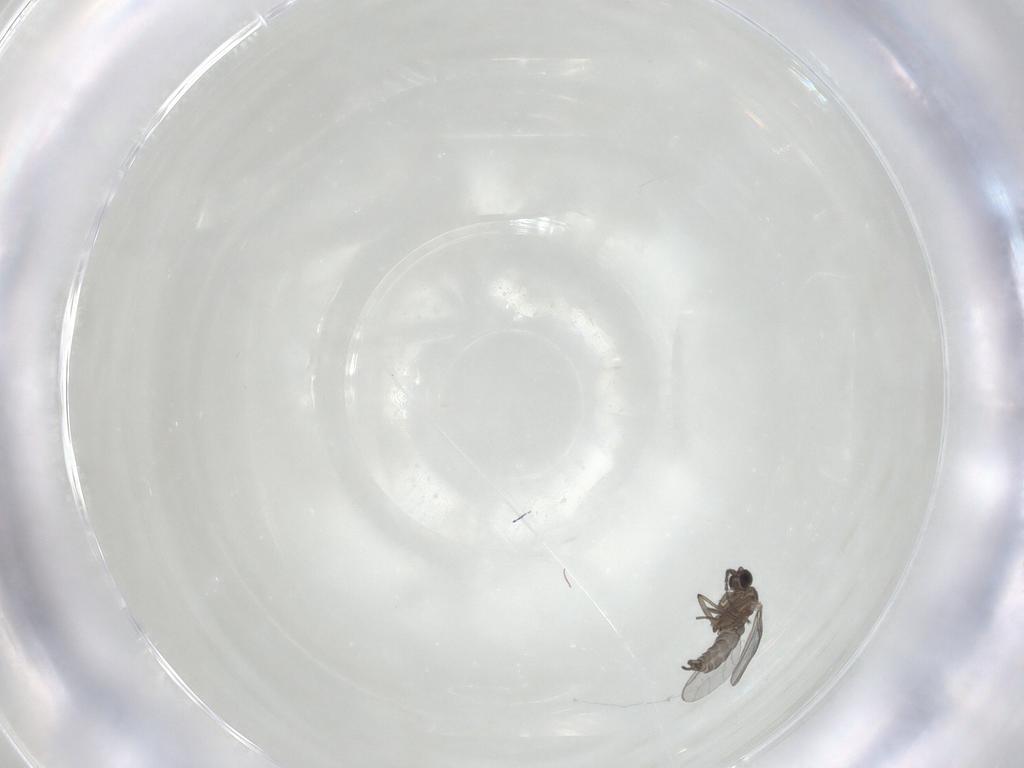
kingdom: Animalia
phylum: Arthropoda
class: Insecta
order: Diptera
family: Sciaridae
